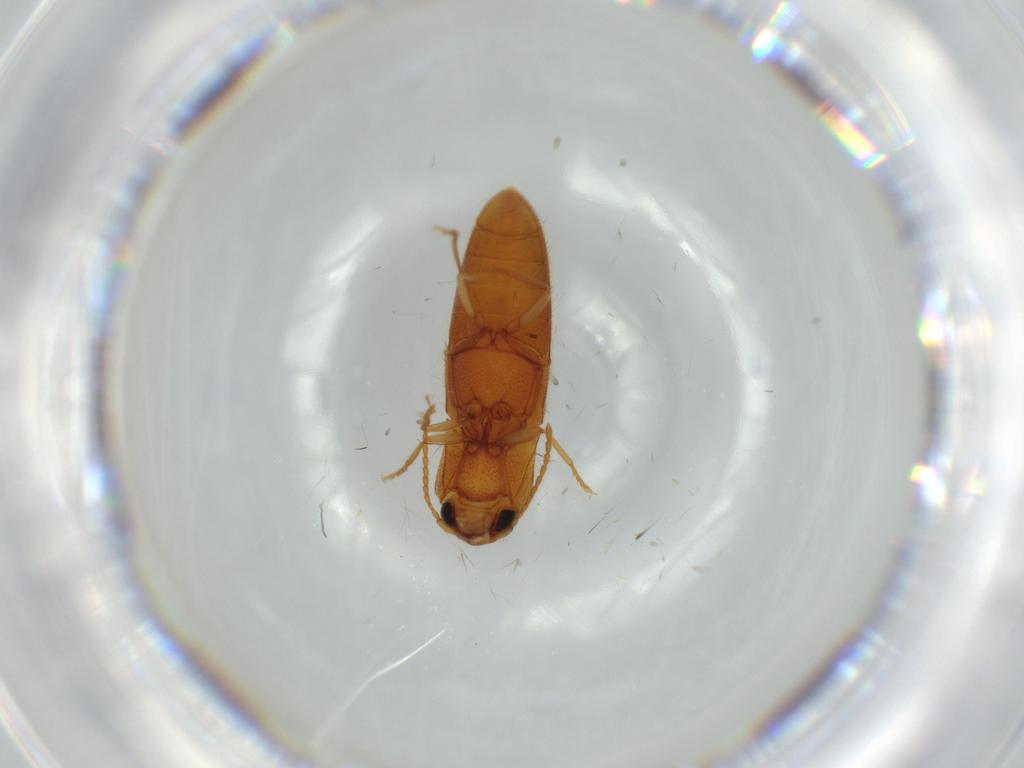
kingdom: Animalia
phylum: Arthropoda
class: Insecta
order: Coleoptera
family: Elateridae
